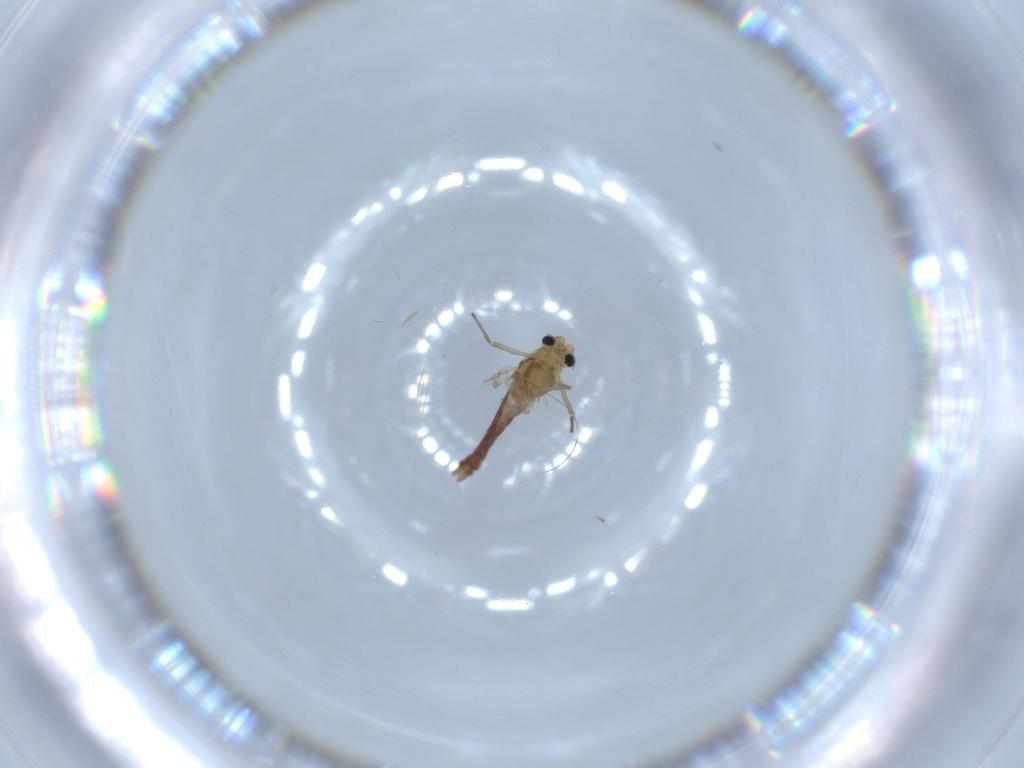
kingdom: Animalia
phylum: Arthropoda
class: Insecta
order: Diptera
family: Chironomidae
